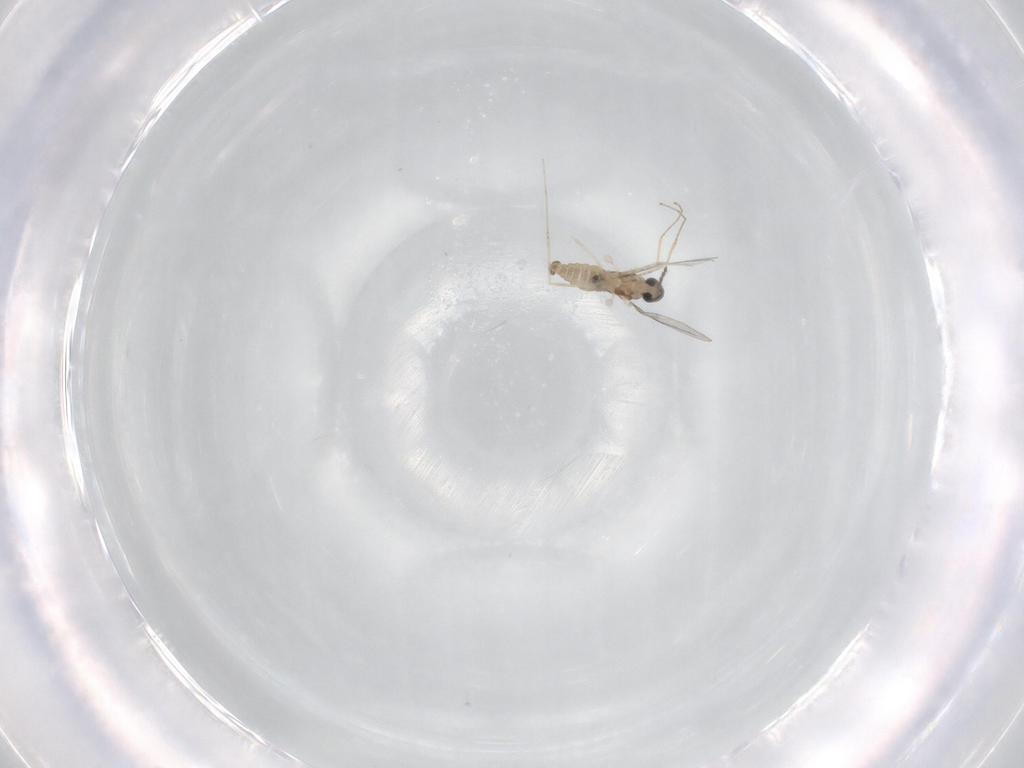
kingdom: Animalia
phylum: Arthropoda
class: Insecta
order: Diptera
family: Cecidomyiidae
